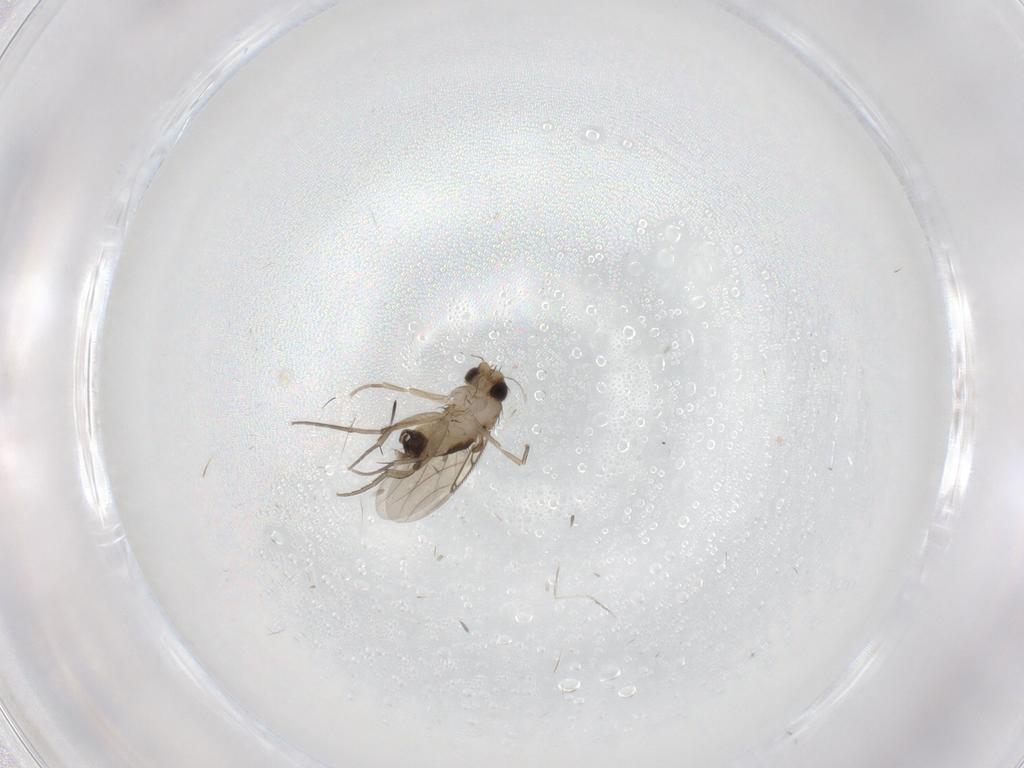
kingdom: Animalia
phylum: Arthropoda
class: Insecta
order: Diptera
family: Phoridae
